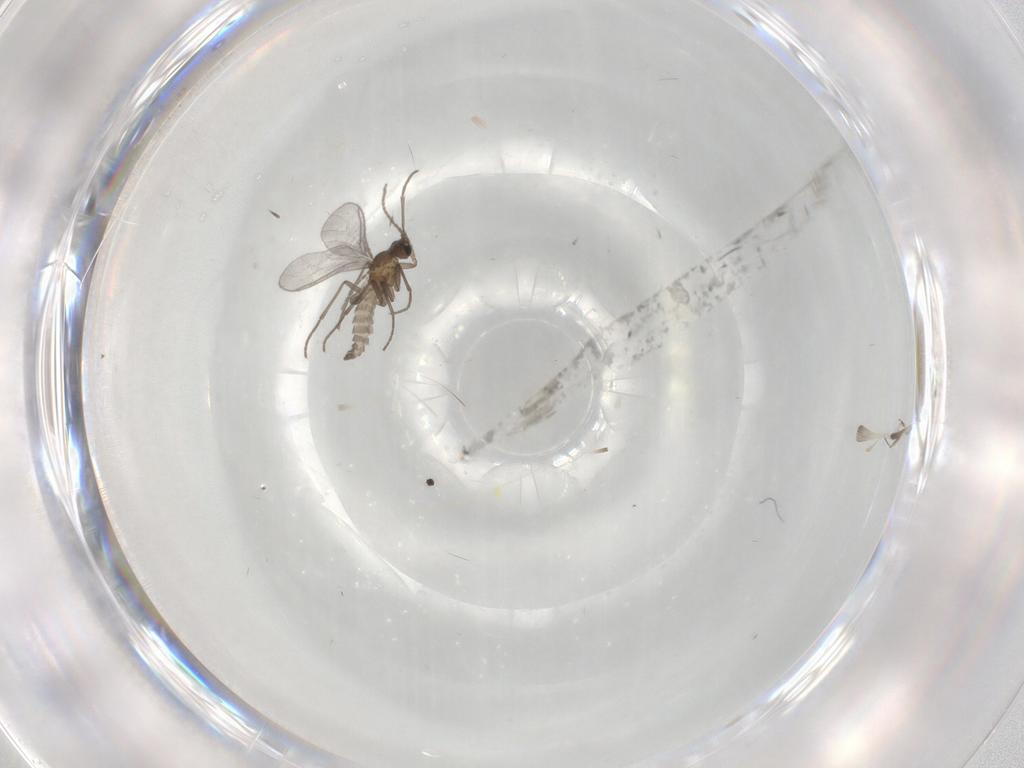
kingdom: Animalia
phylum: Arthropoda
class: Insecta
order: Diptera
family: Sciaridae
